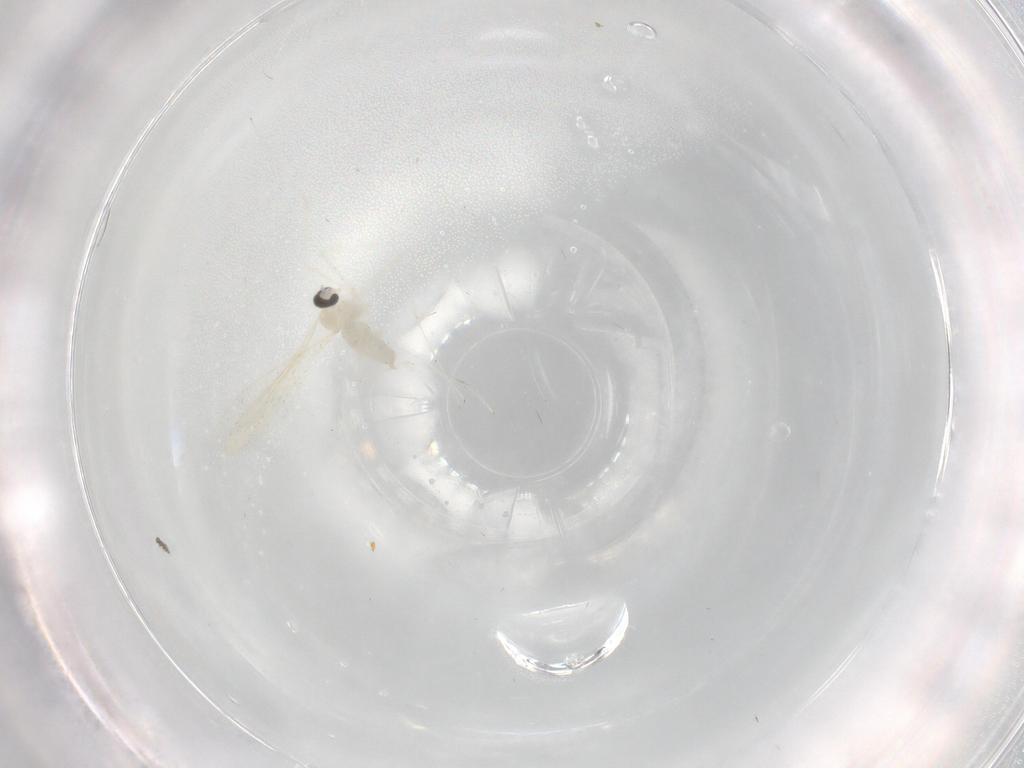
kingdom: Animalia
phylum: Arthropoda
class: Insecta
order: Diptera
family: Cecidomyiidae
